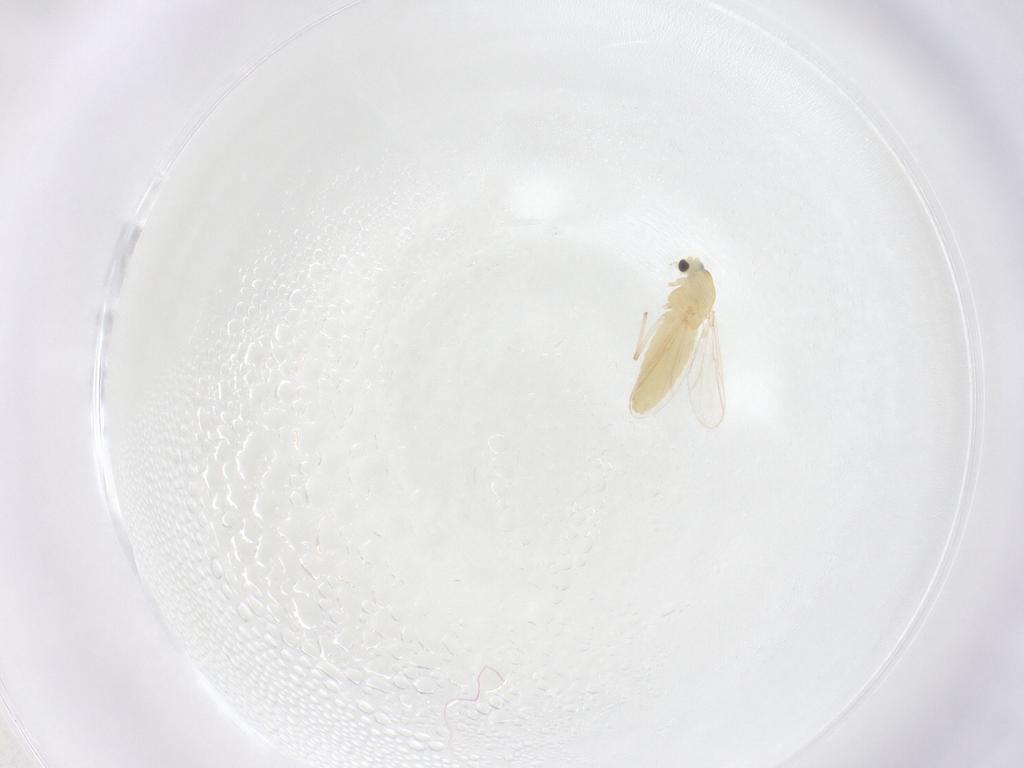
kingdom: Animalia
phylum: Arthropoda
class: Insecta
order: Diptera
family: Chironomidae
